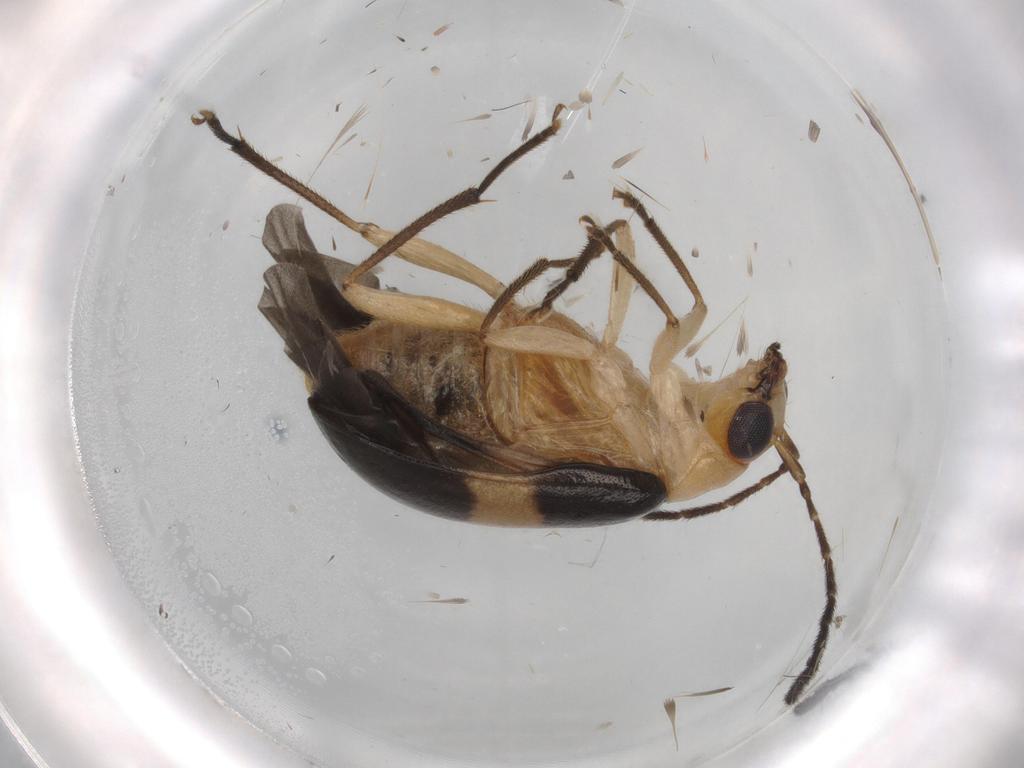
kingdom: Animalia
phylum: Arthropoda
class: Insecta
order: Coleoptera
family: Chrysomelidae
